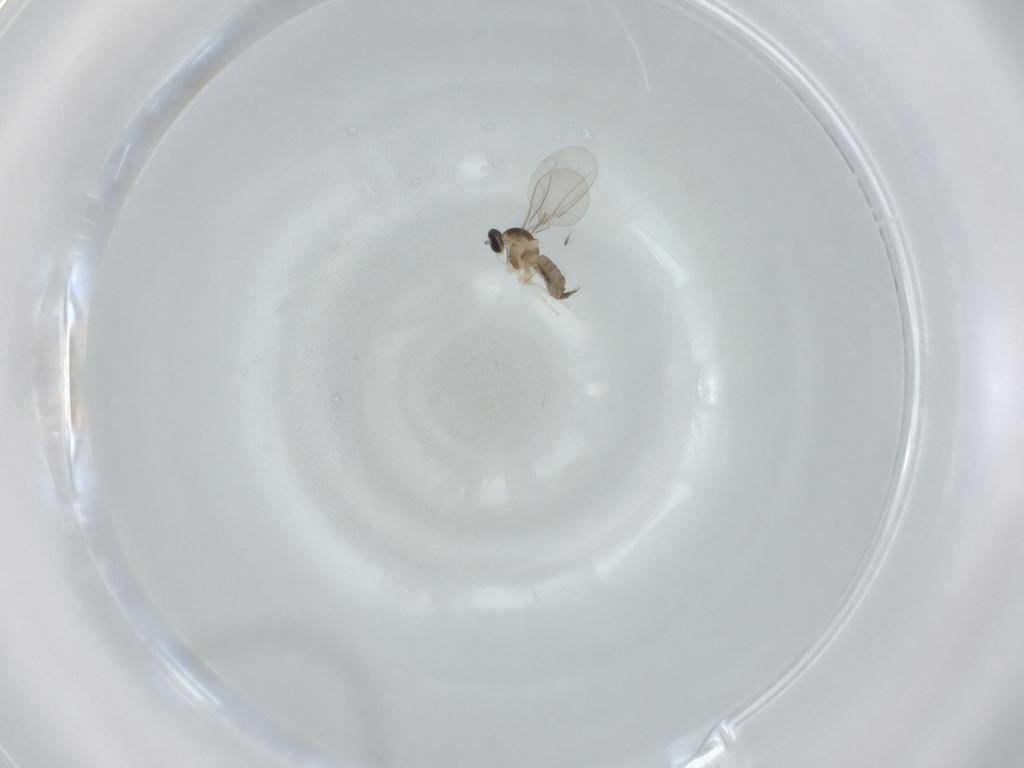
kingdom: Animalia
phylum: Arthropoda
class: Insecta
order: Diptera
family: Cecidomyiidae
